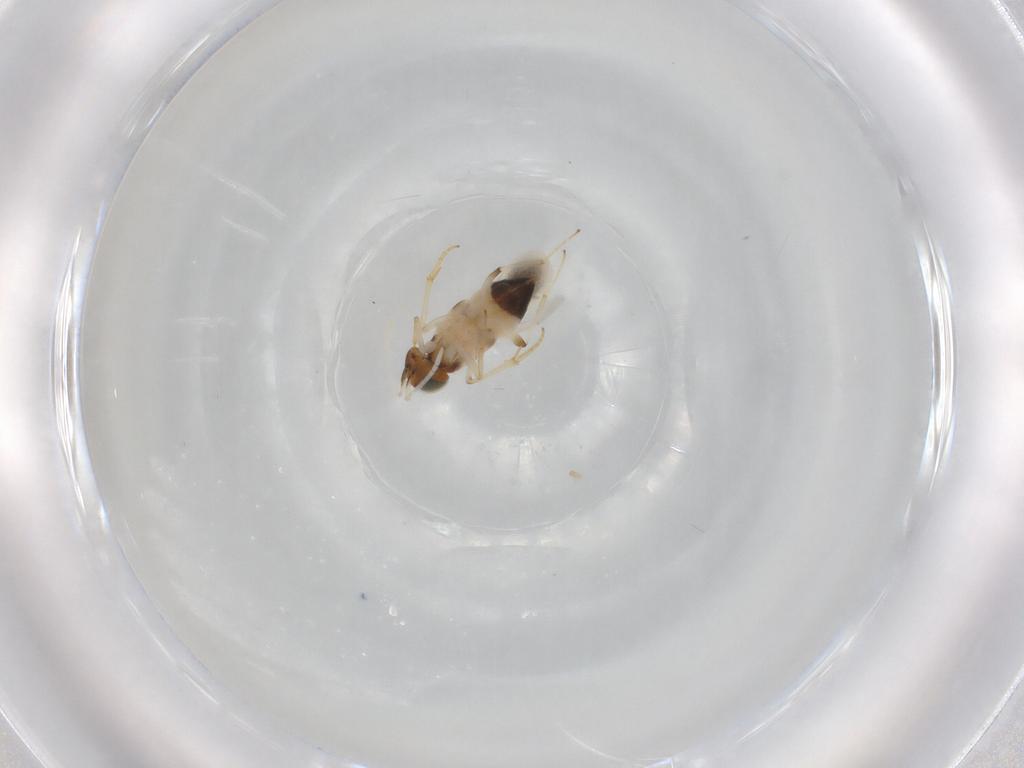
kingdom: Animalia
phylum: Arthropoda
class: Insecta
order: Hymenoptera
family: Encyrtidae
